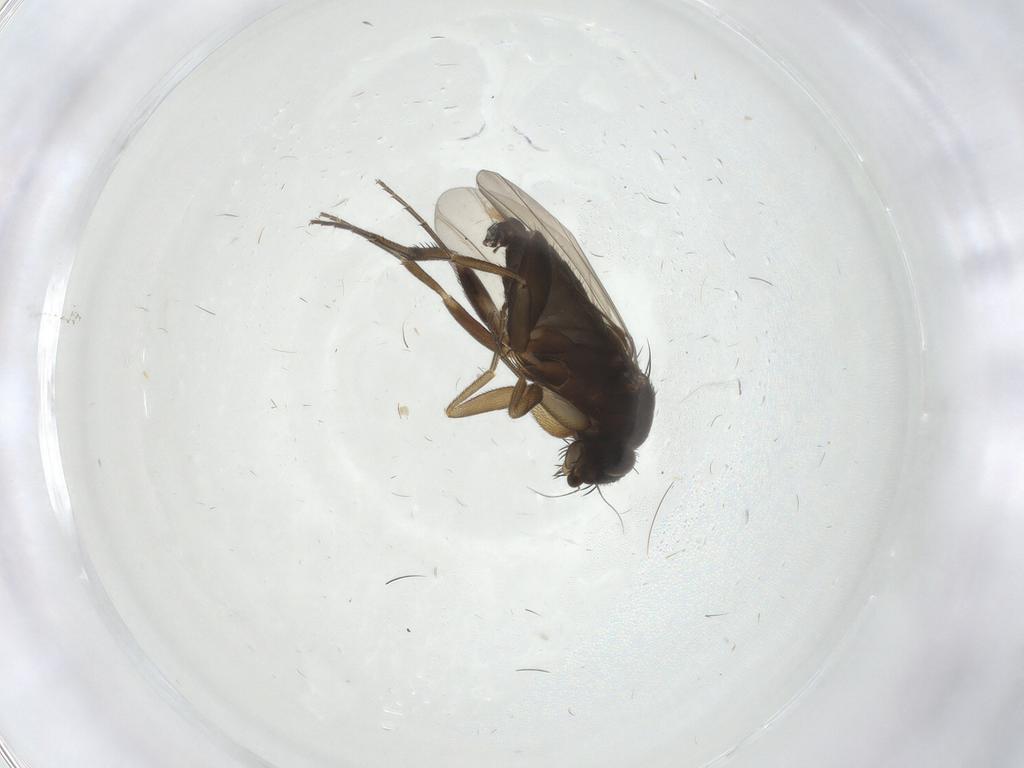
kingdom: Animalia
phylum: Arthropoda
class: Insecta
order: Diptera
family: Phoridae
